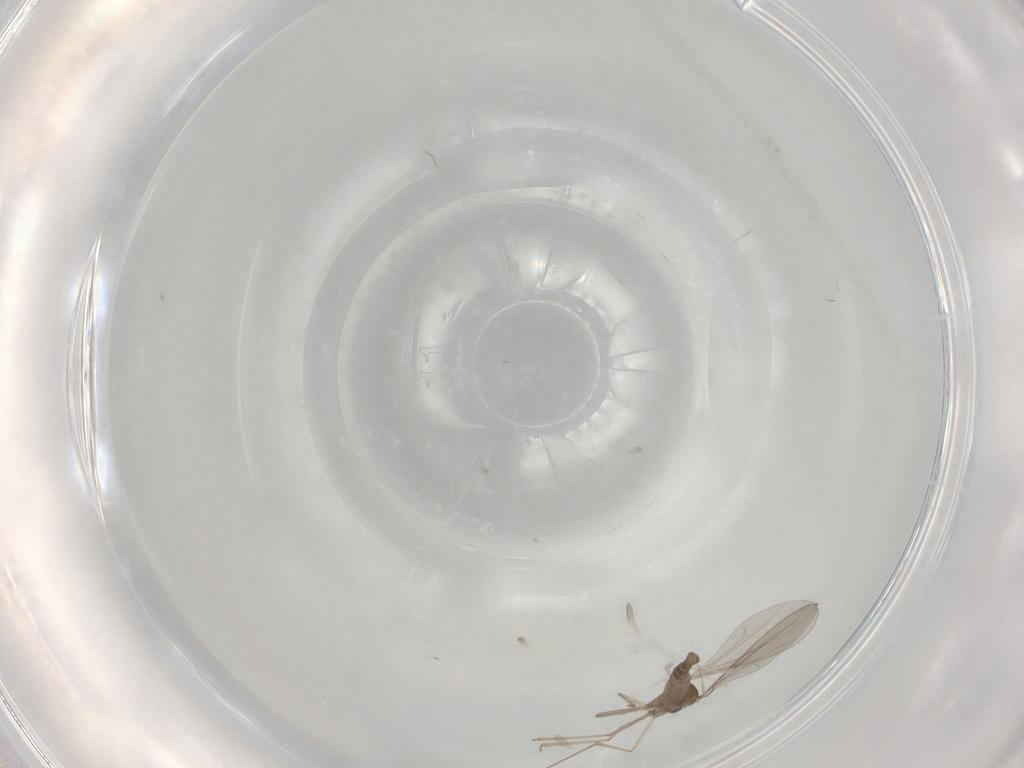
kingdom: Animalia
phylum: Arthropoda
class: Insecta
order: Diptera
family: Cecidomyiidae
